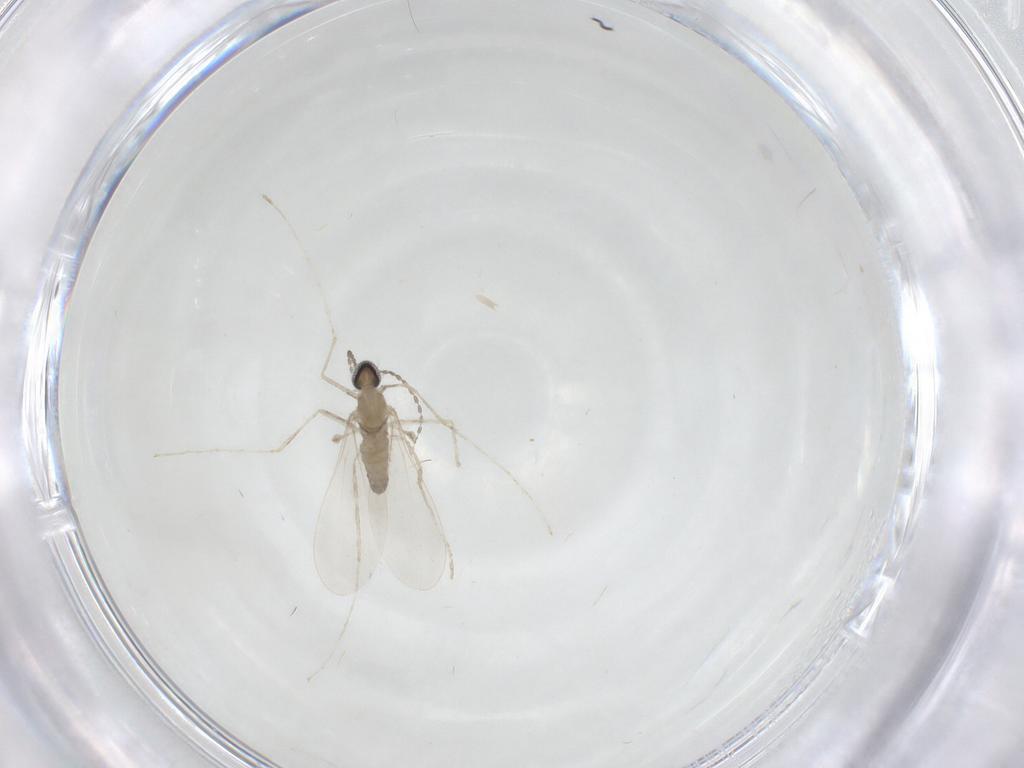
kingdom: Animalia
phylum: Arthropoda
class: Insecta
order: Diptera
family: Cecidomyiidae
